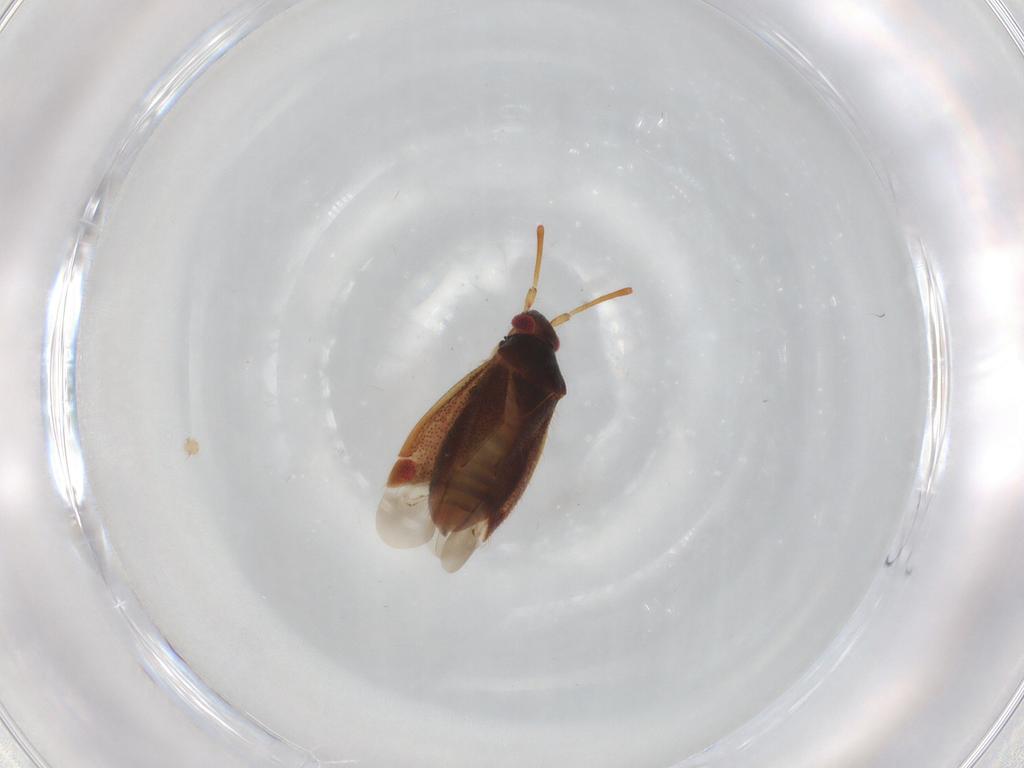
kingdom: Animalia
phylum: Arthropoda
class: Insecta
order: Hemiptera
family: Miridae
